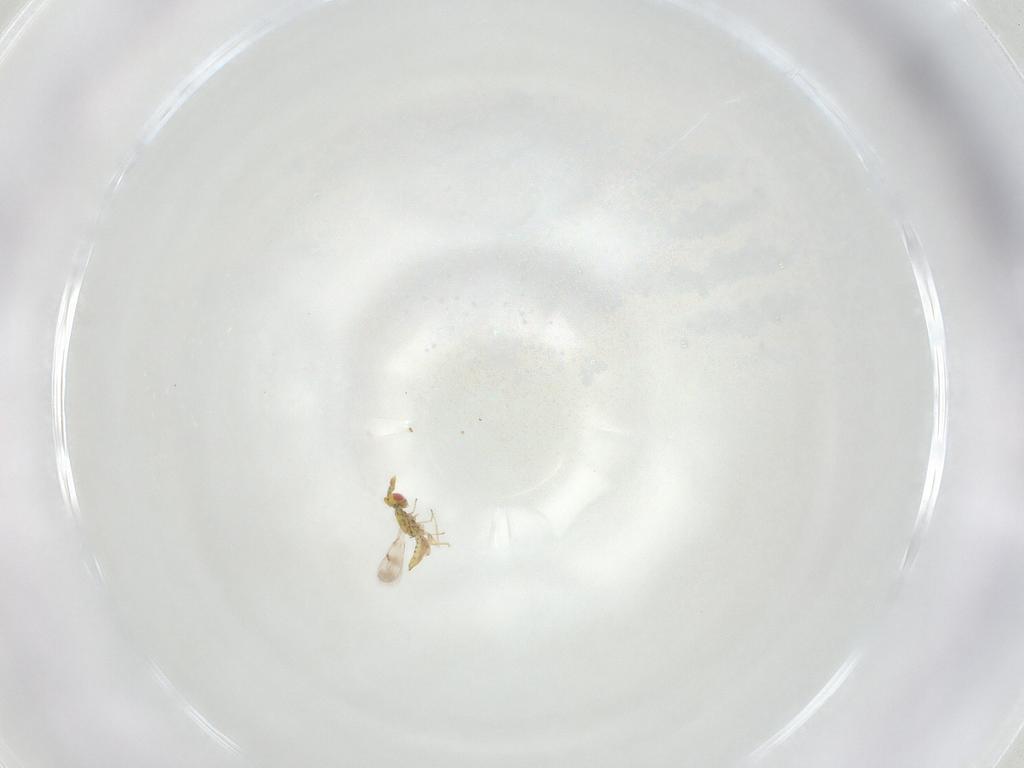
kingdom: Animalia
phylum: Arthropoda
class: Insecta
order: Hymenoptera
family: Eulophidae
